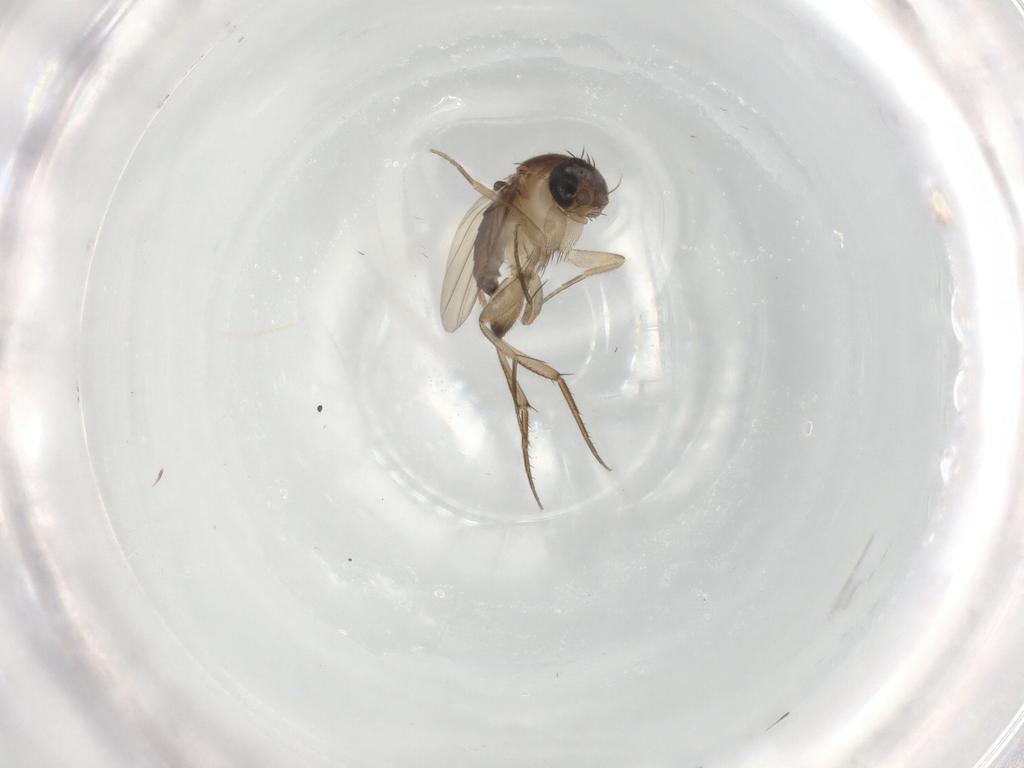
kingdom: Animalia
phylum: Arthropoda
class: Insecta
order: Diptera
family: Phoridae
